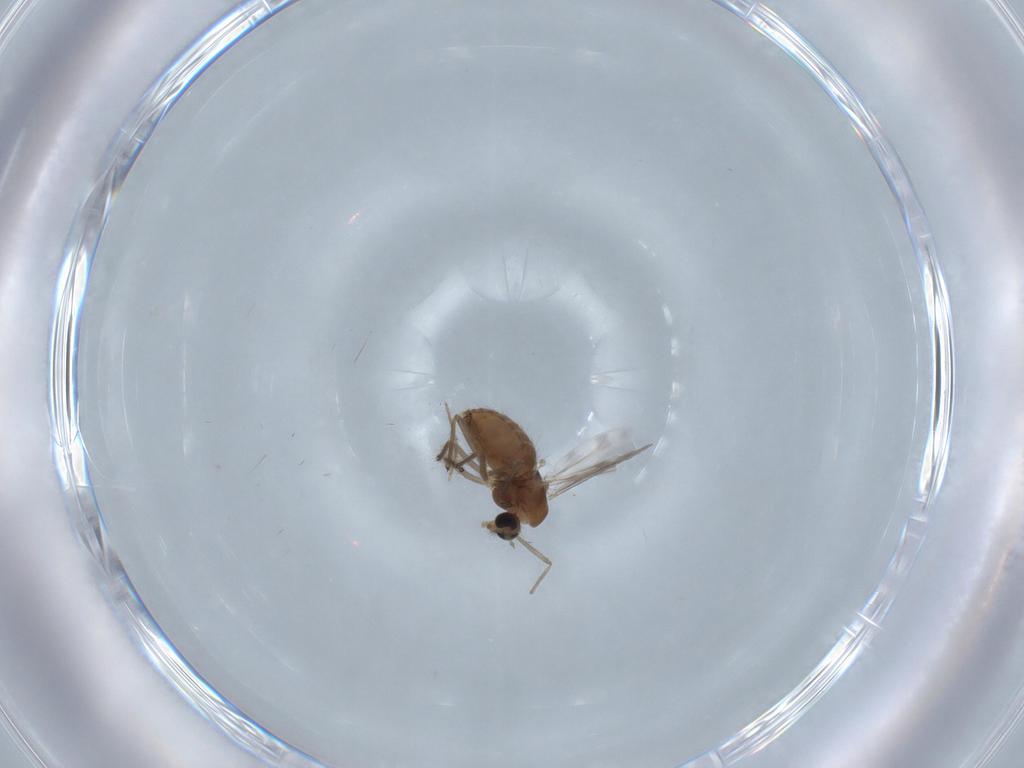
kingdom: Animalia
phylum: Arthropoda
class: Insecta
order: Diptera
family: Chironomidae
